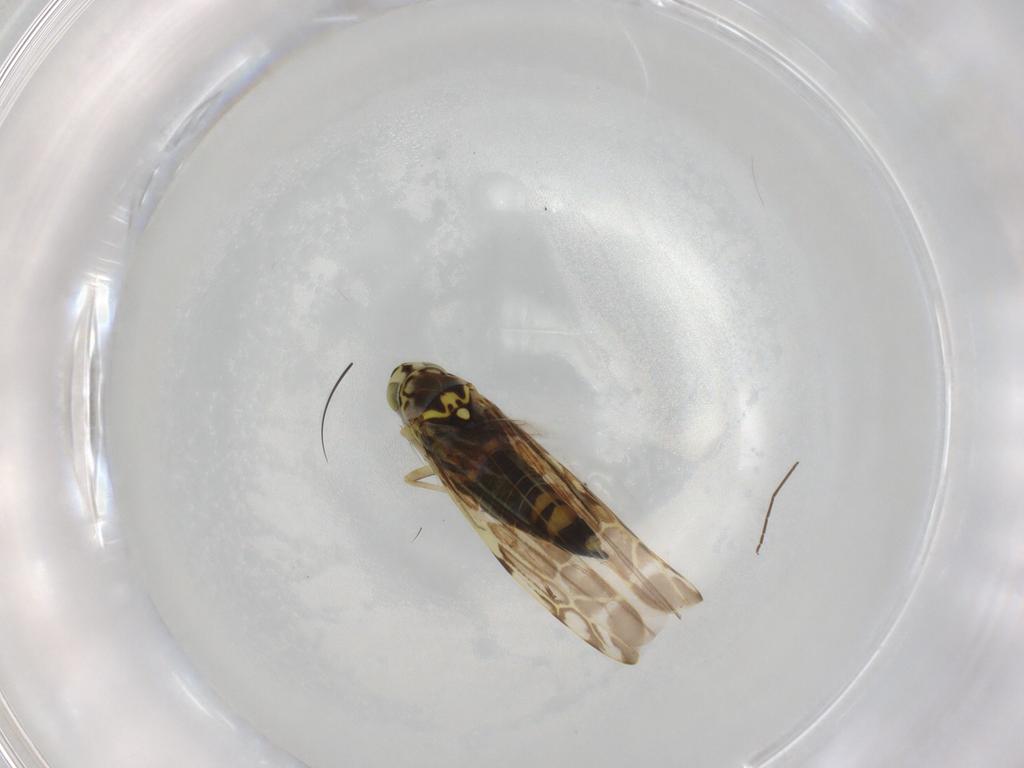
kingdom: Animalia
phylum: Arthropoda
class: Insecta
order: Hemiptera
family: Cicadellidae
